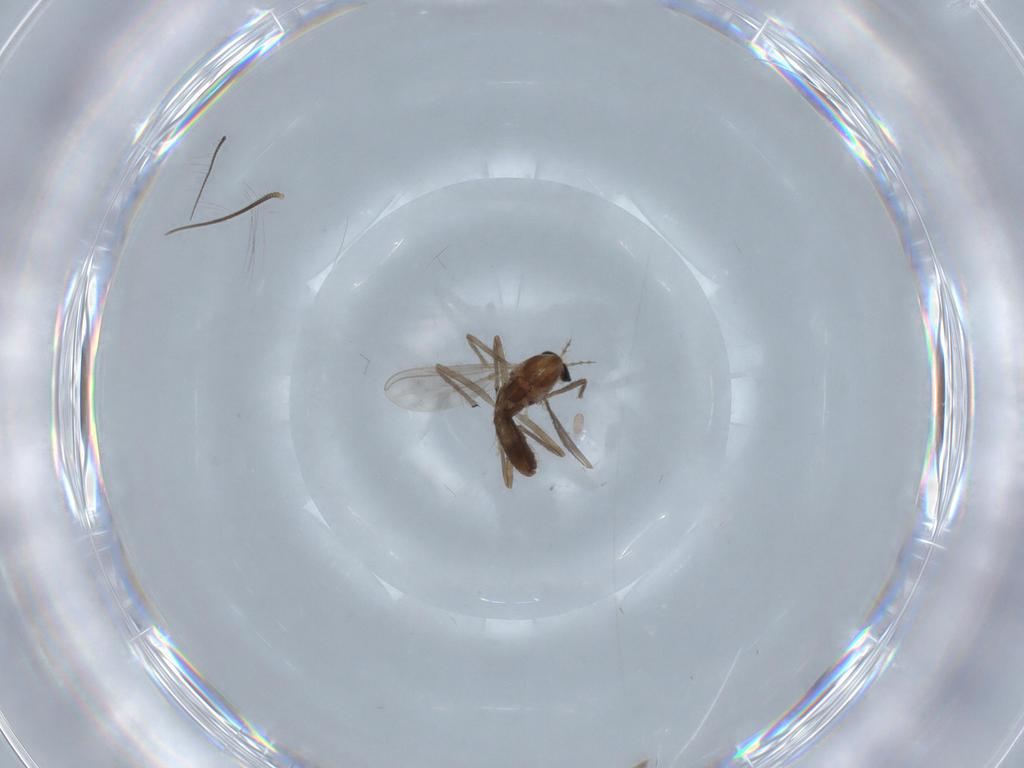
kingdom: Animalia
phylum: Arthropoda
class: Insecta
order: Diptera
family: Chironomidae
